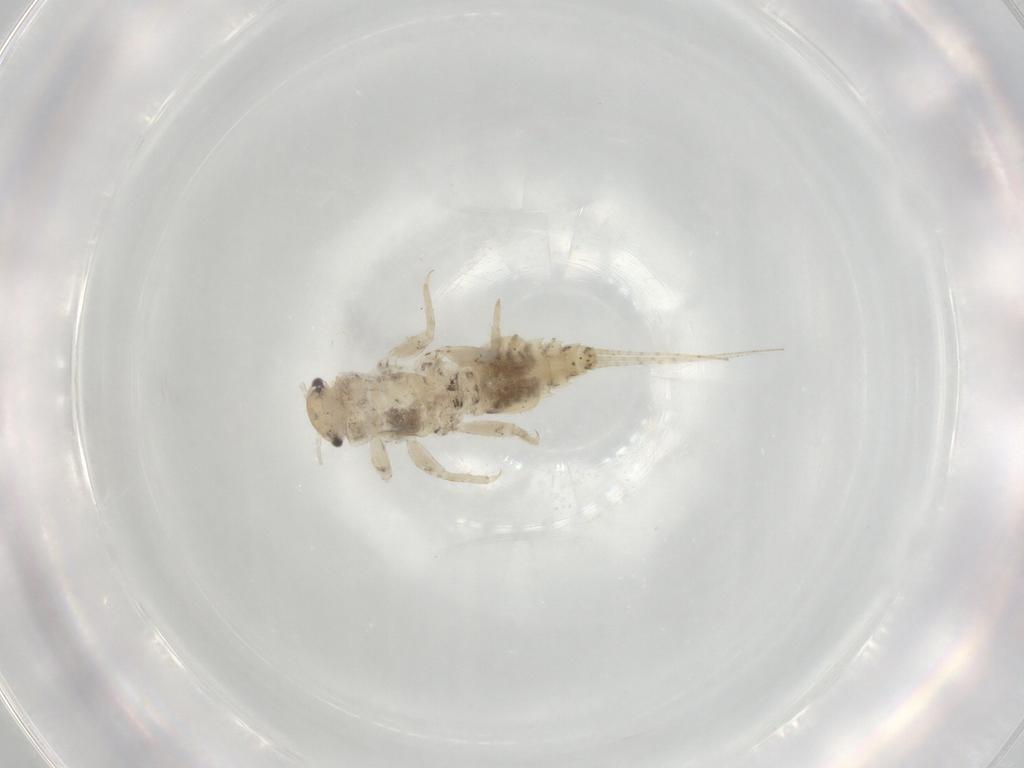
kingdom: Animalia
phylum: Arthropoda
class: Insecta
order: Ephemeroptera
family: Caenidae
